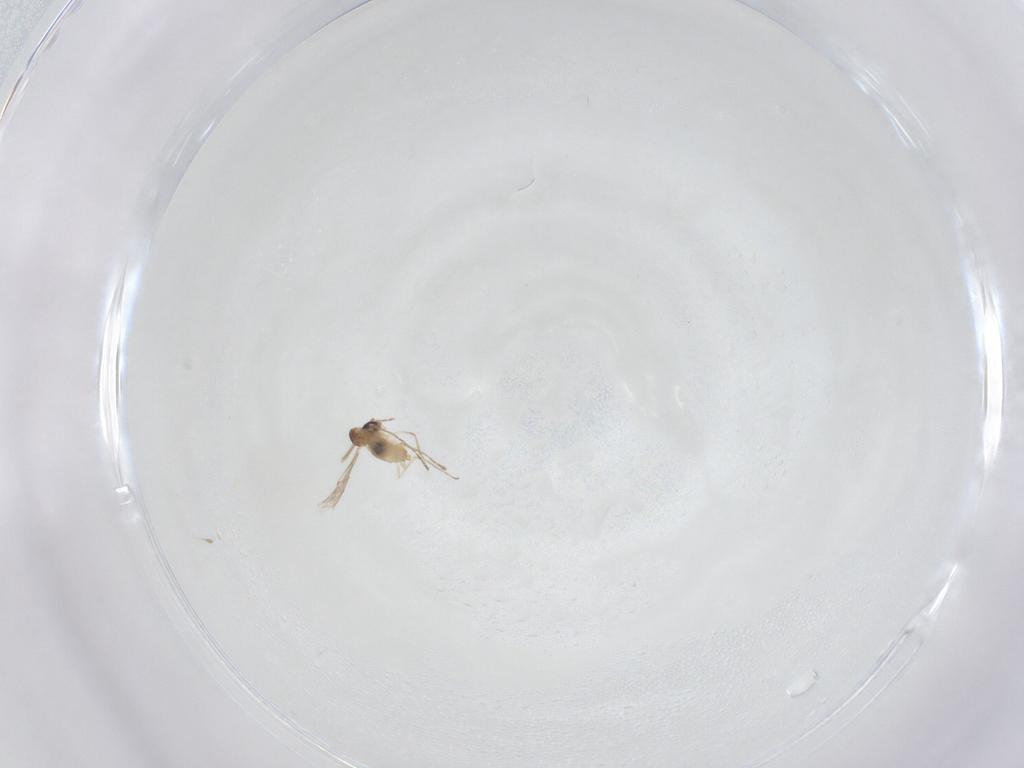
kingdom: Animalia
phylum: Arthropoda
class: Insecta
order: Diptera
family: Cecidomyiidae
